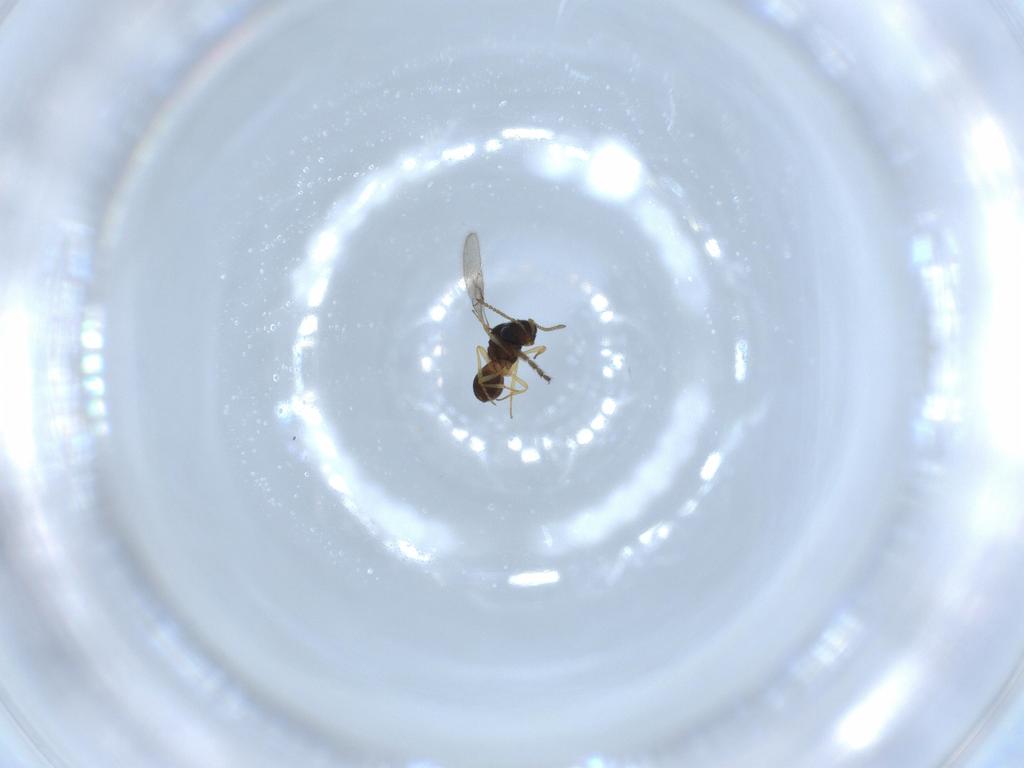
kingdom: Animalia
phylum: Arthropoda
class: Insecta
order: Hymenoptera
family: Scelionidae
